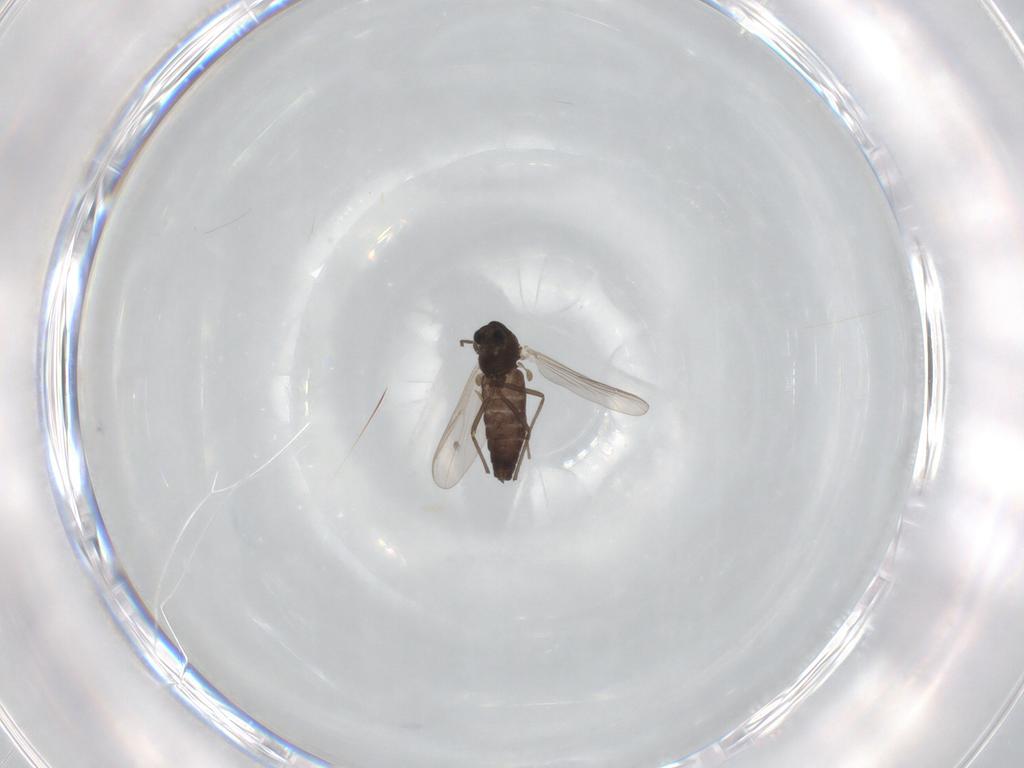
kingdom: Animalia
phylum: Arthropoda
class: Insecta
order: Diptera
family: Chironomidae
